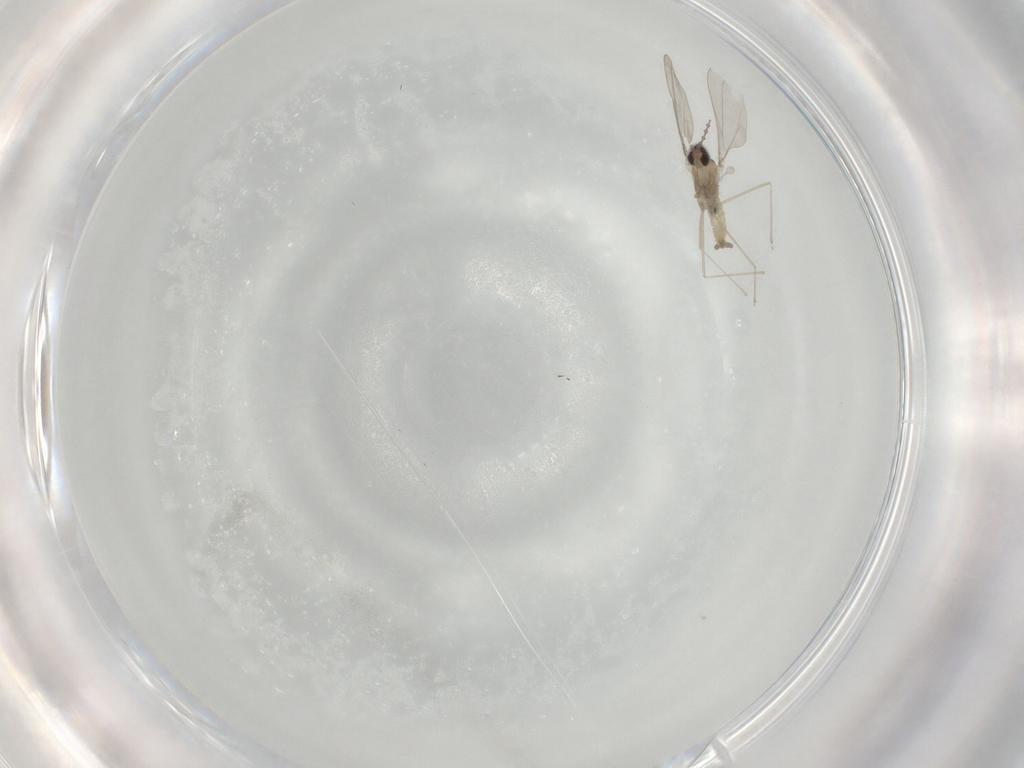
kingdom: Animalia
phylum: Arthropoda
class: Insecta
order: Diptera
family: Cecidomyiidae
